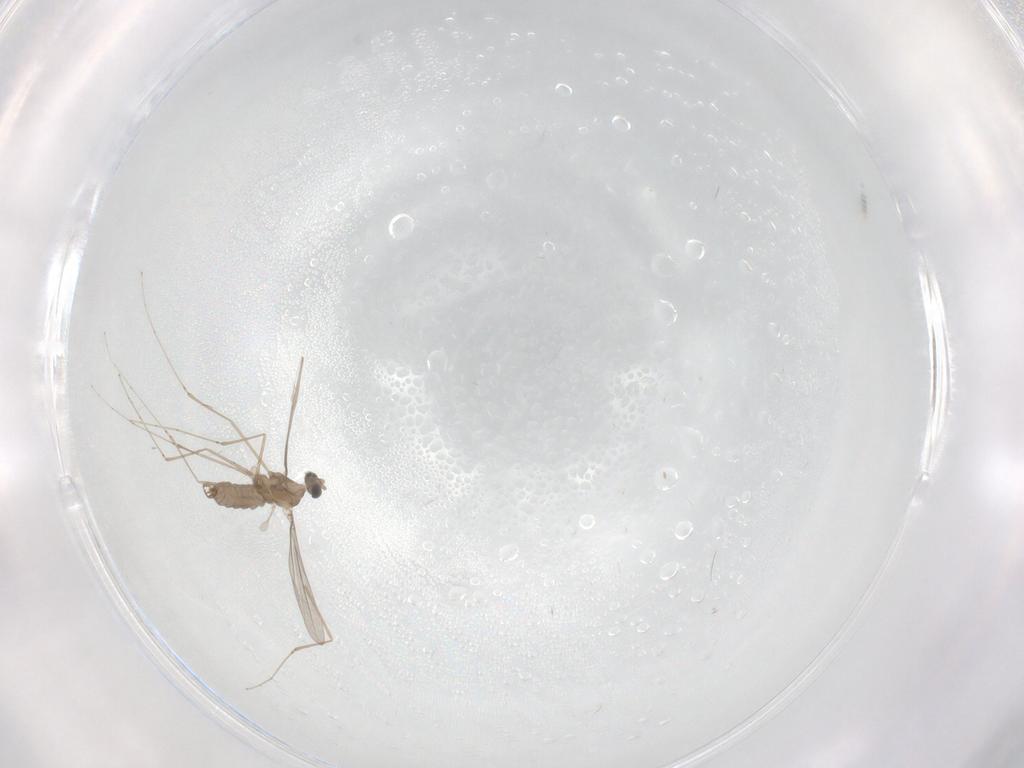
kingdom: Animalia
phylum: Arthropoda
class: Insecta
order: Diptera
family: Cecidomyiidae
